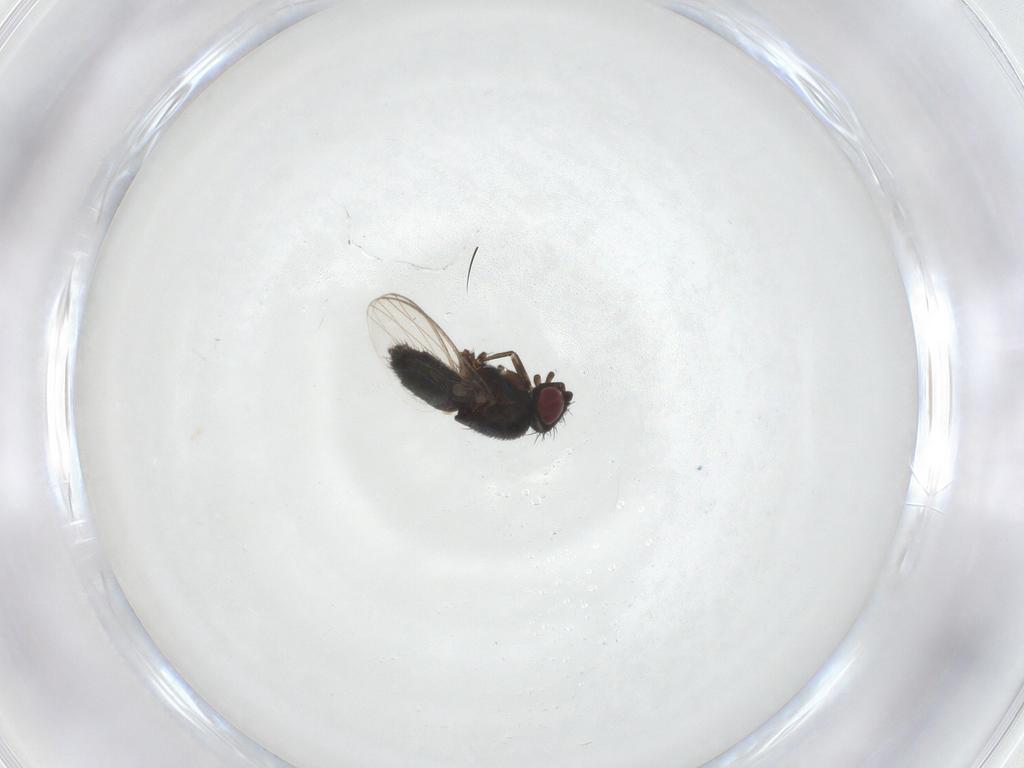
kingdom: Animalia
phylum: Arthropoda
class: Insecta
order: Diptera
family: Milichiidae
